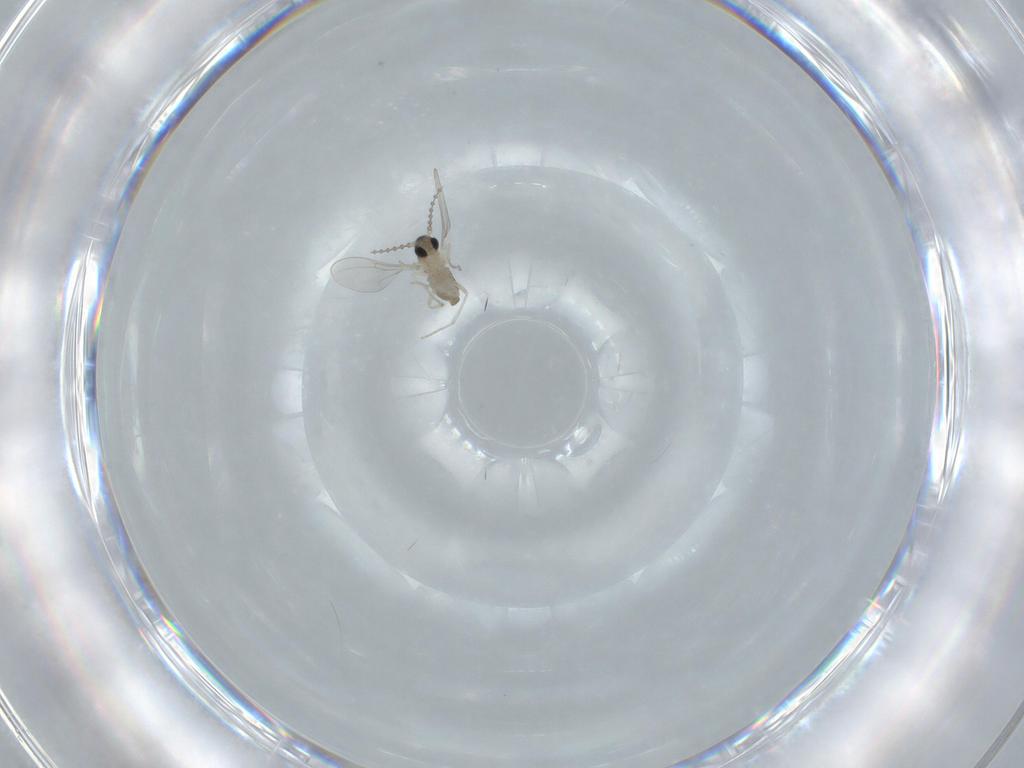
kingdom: Animalia
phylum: Arthropoda
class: Insecta
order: Diptera
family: Cecidomyiidae
